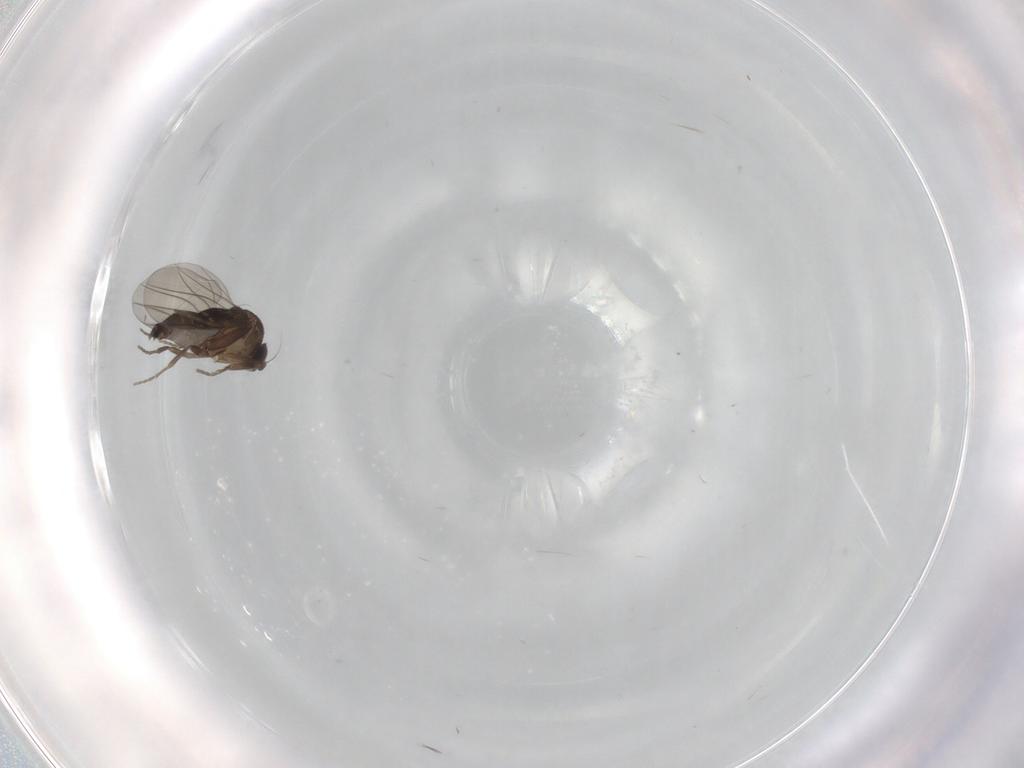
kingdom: Animalia
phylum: Arthropoda
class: Insecta
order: Diptera
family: Phoridae
